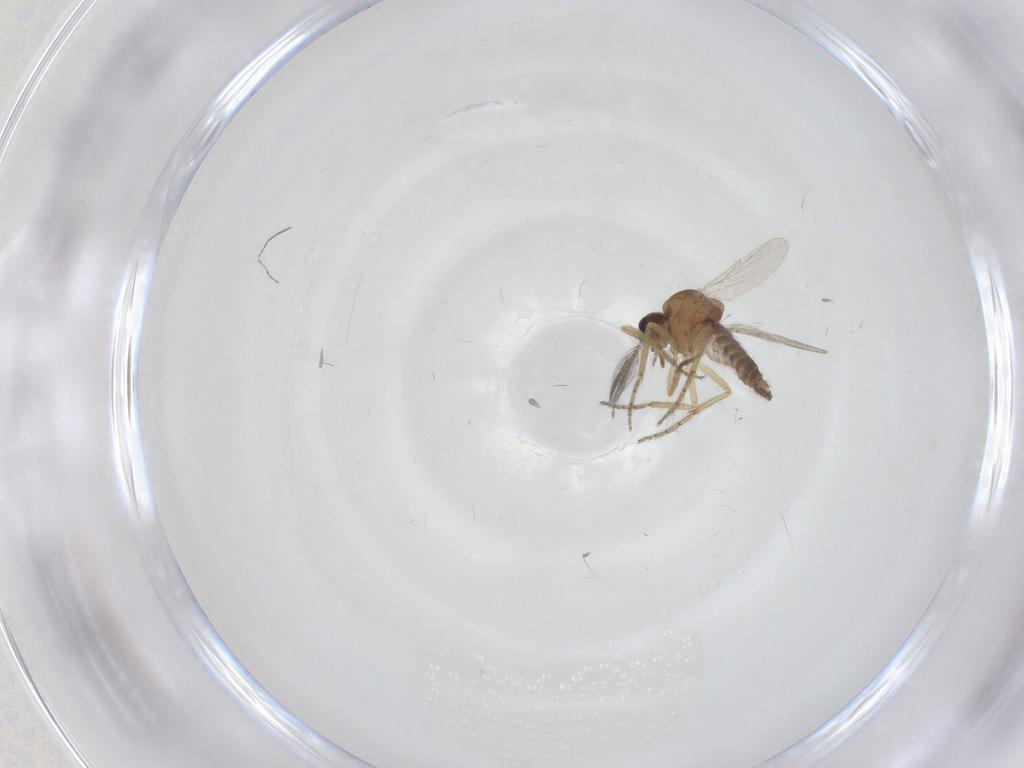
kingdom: Animalia
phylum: Arthropoda
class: Insecta
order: Diptera
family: Ceratopogonidae
